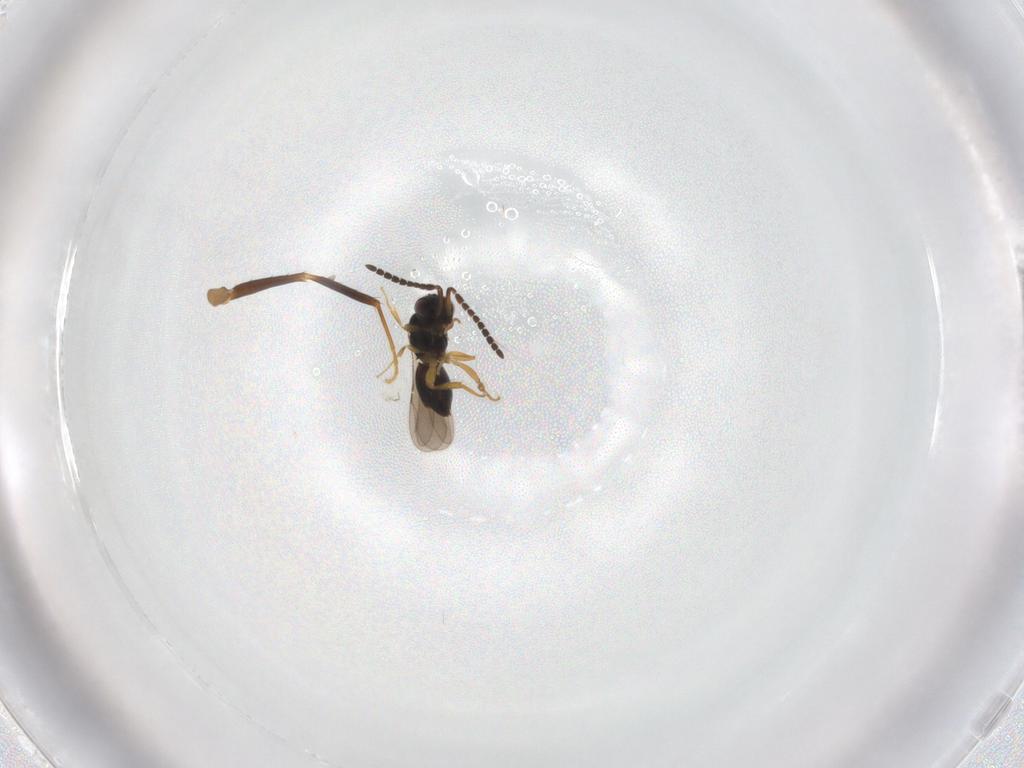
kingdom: Animalia
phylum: Arthropoda
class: Insecta
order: Hymenoptera
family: Formicidae
